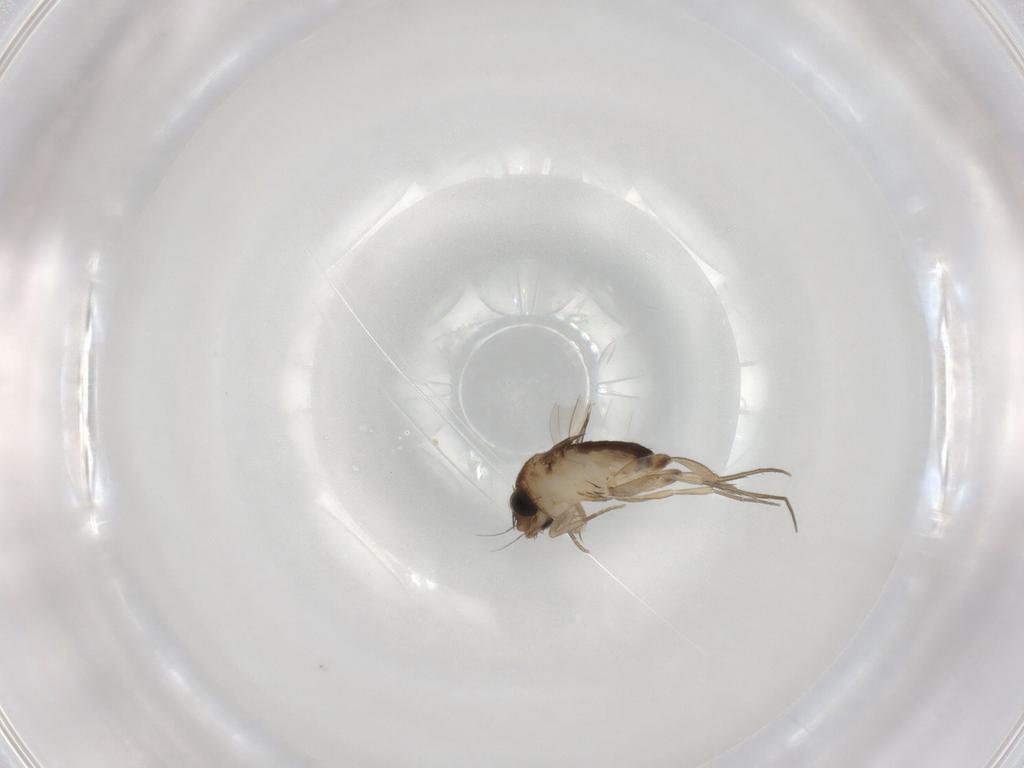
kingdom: Animalia
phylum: Arthropoda
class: Insecta
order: Diptera
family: Phoridae
